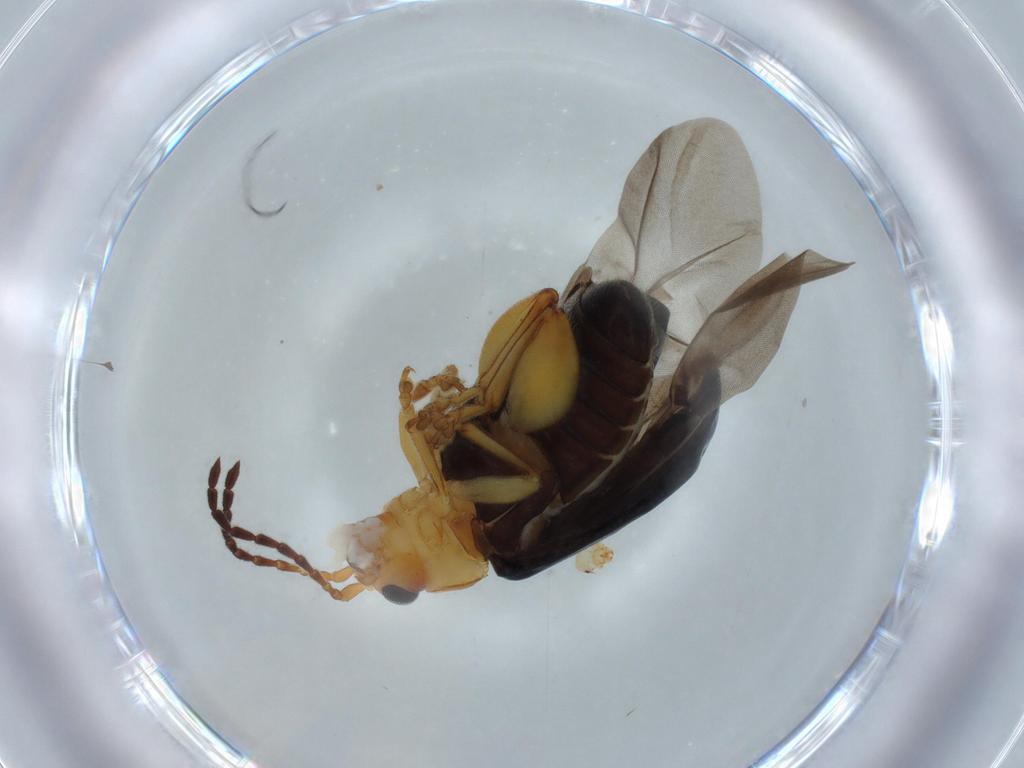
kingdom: Animalia
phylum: Arthropoda
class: Insecta
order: Coleoptera
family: Chrysomelidae
